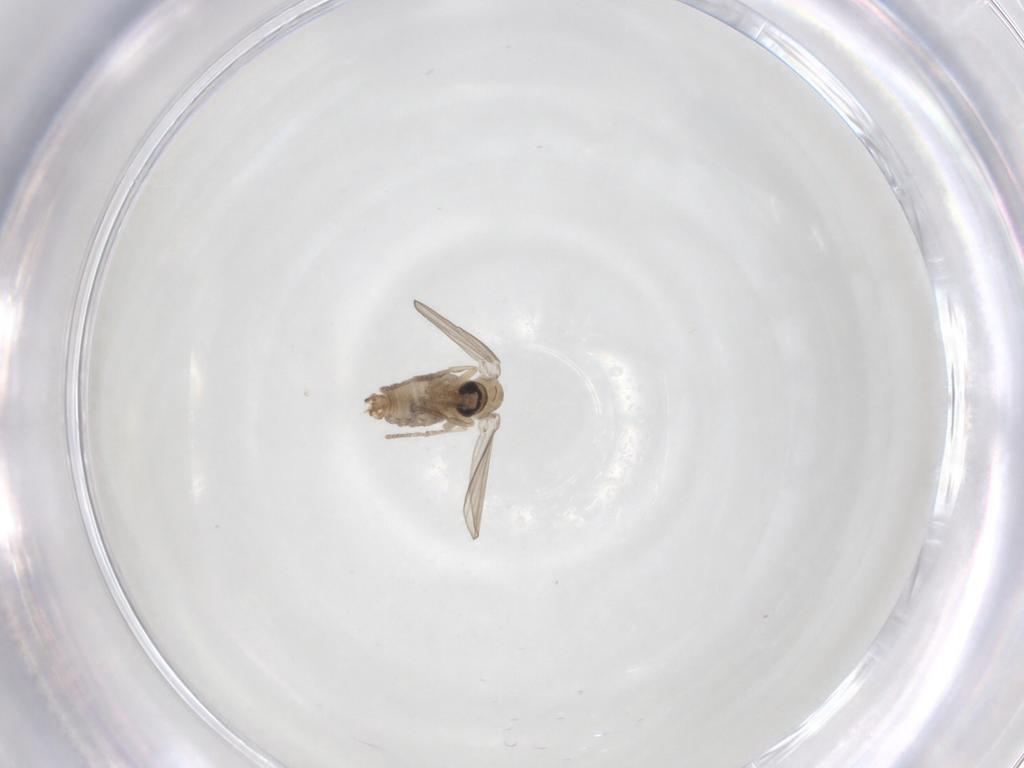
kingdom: Animalia
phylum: Arthropoda
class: Insecta
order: Diptera
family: Psychodidae
